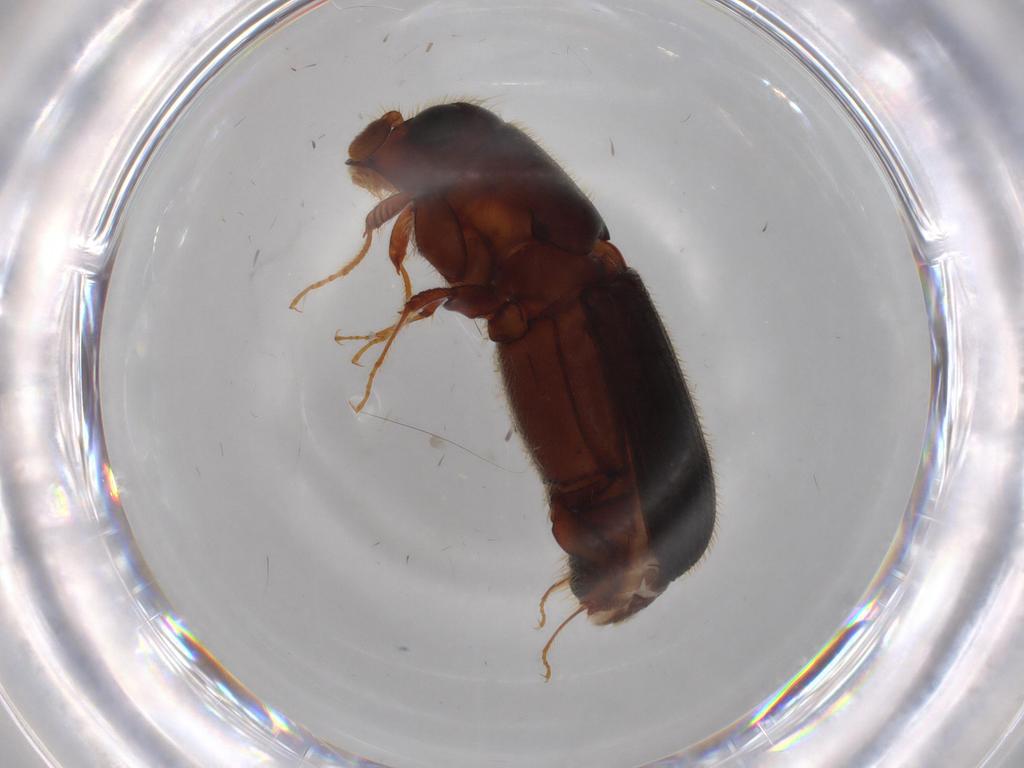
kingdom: Animalia
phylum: Arthropoda
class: Insecta
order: Coleoptera
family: Curculionidae
